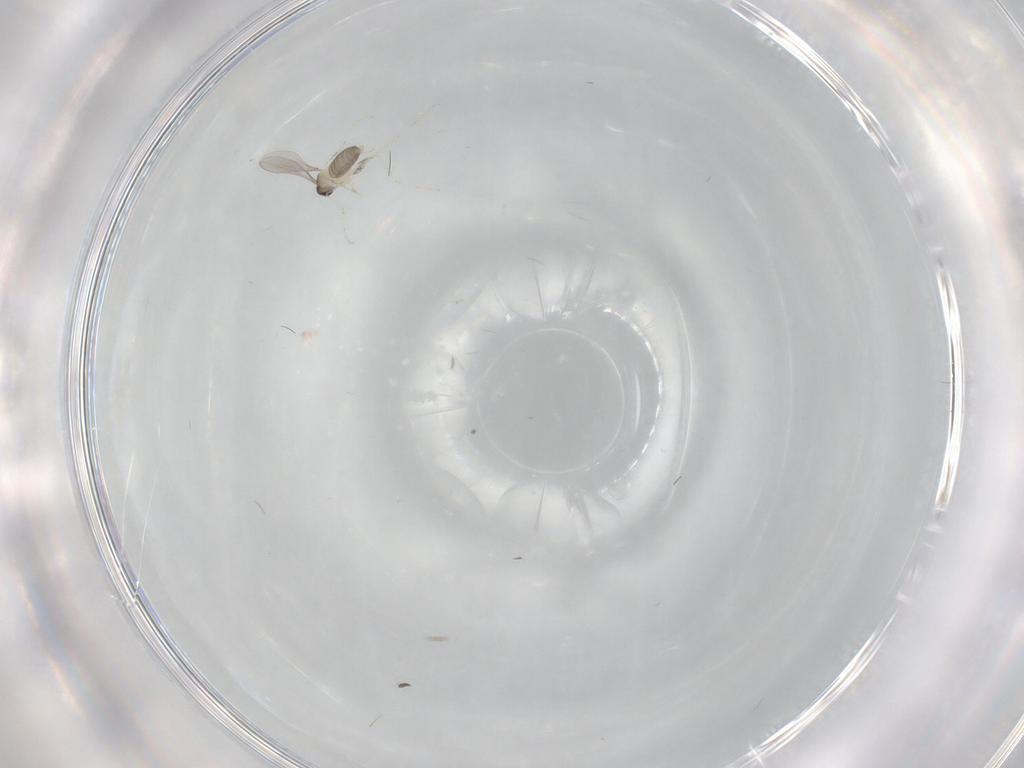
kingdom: Animalia
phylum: Arthropoda
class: Insecta
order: Diptera
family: Cecidomyiidae
